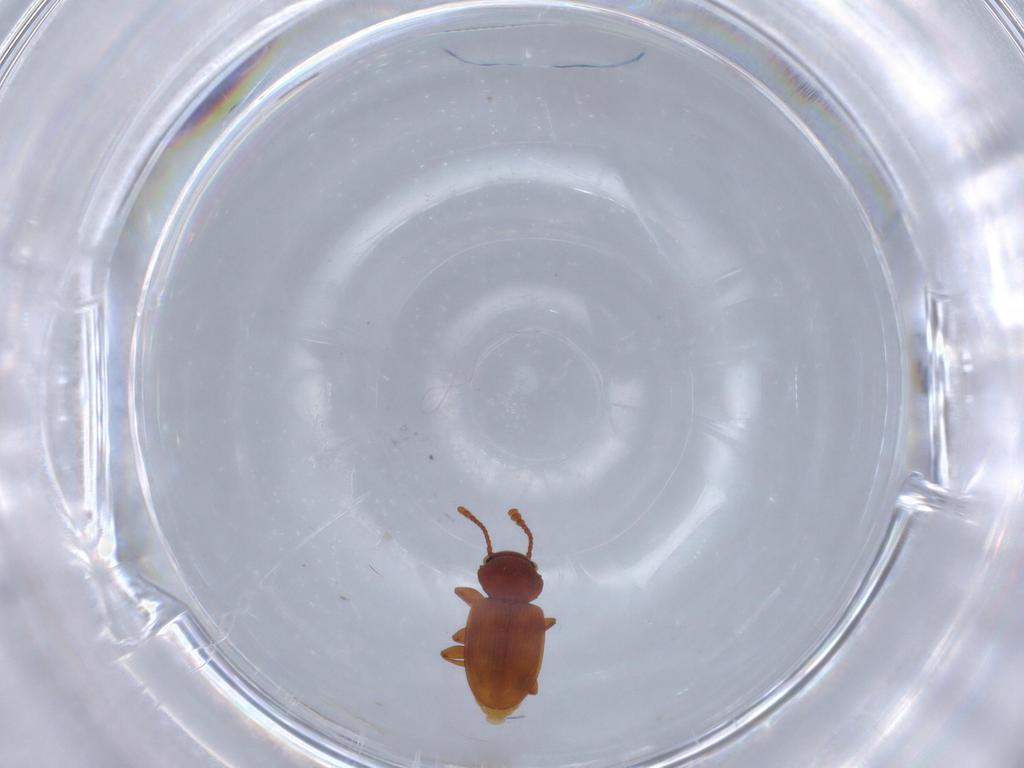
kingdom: Animalia
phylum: Arthropoda
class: Insecta
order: Coleoptera
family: Silvanidae
